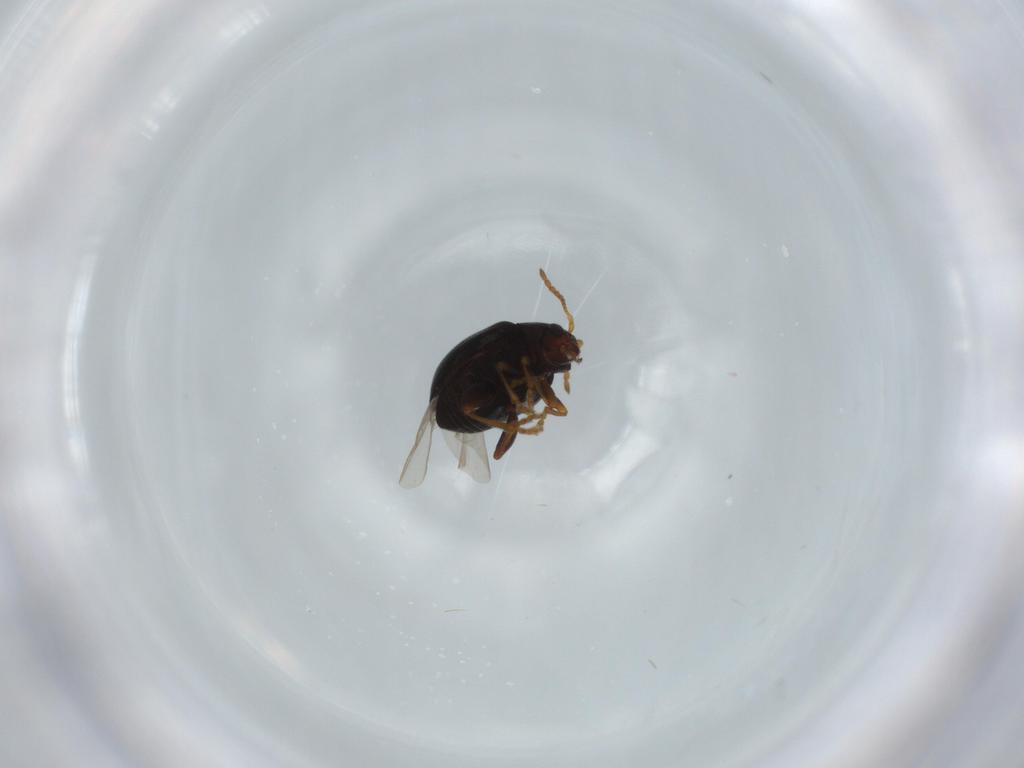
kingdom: Animalia
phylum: Arthropoda
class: Insecta
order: Coleoptera
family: Chrysomelidae
